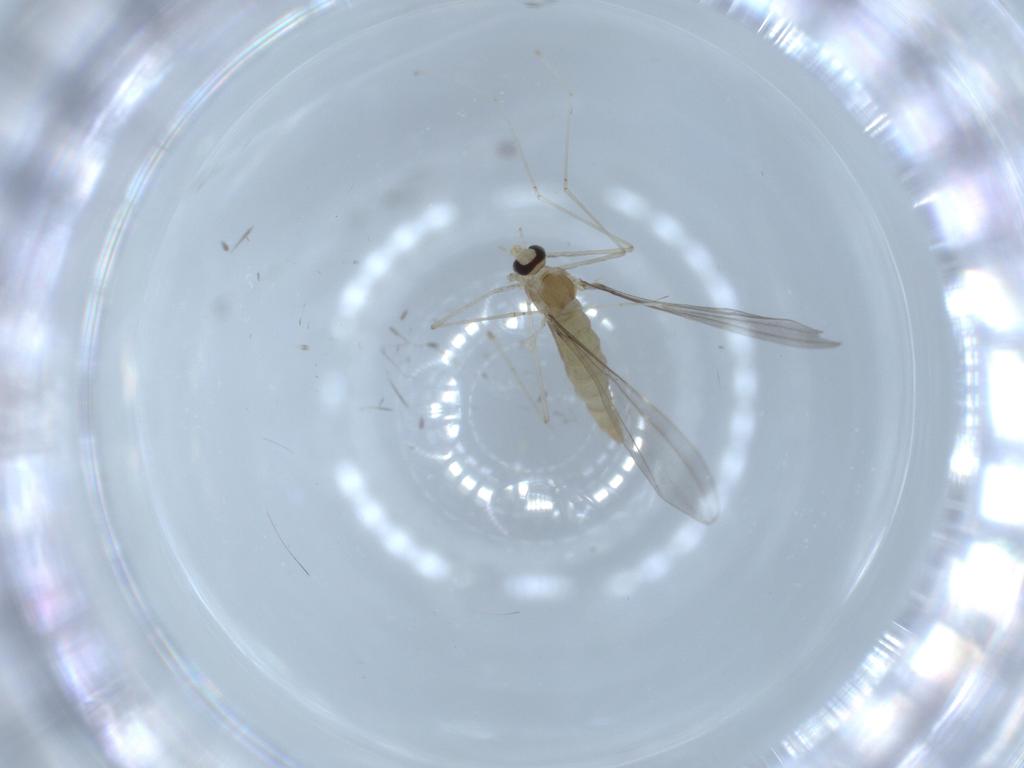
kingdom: Animalia
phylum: Arthropoda
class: Insecta
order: Diptera
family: Cecidomyiidae
